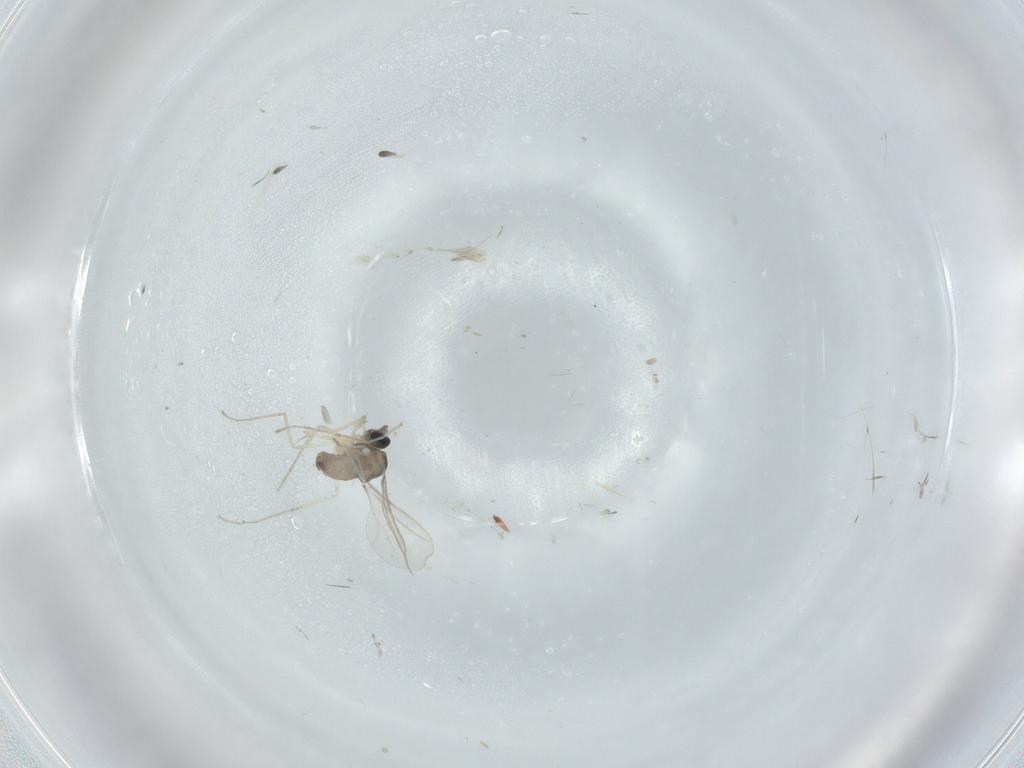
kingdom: Animalia
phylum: Arthropoda
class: Insecta
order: Diptera
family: Cecidomyiidae
